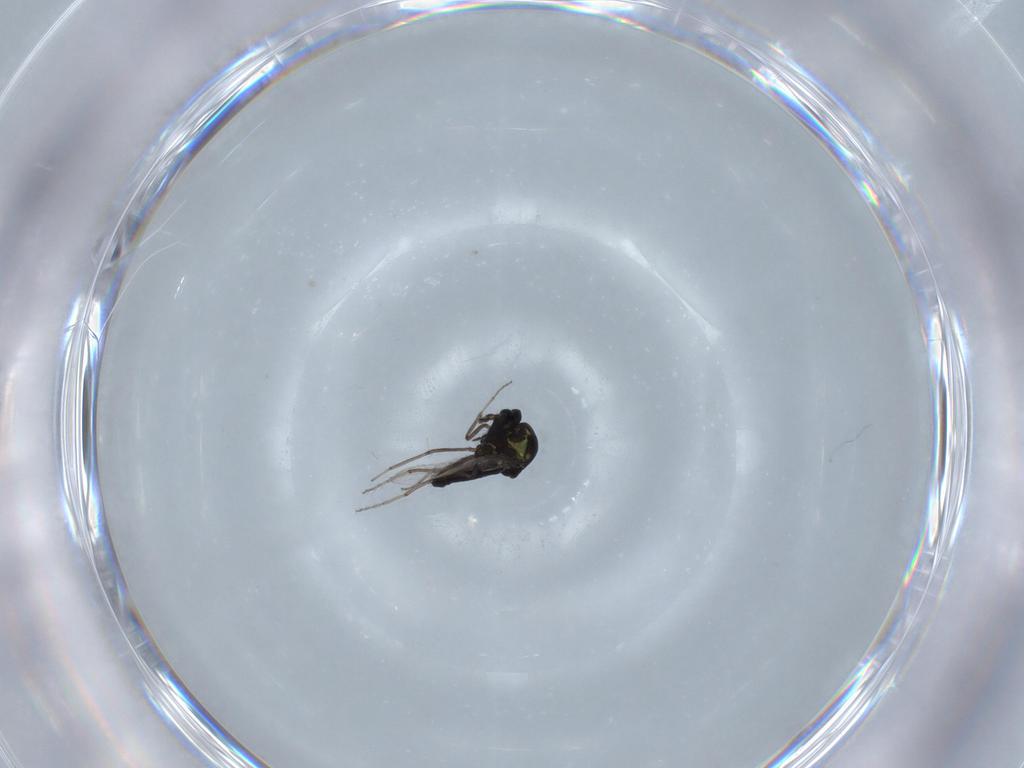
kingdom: Animalia
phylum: Arthropoda
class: Insecta
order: Diptera
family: Ceratopogonidae
